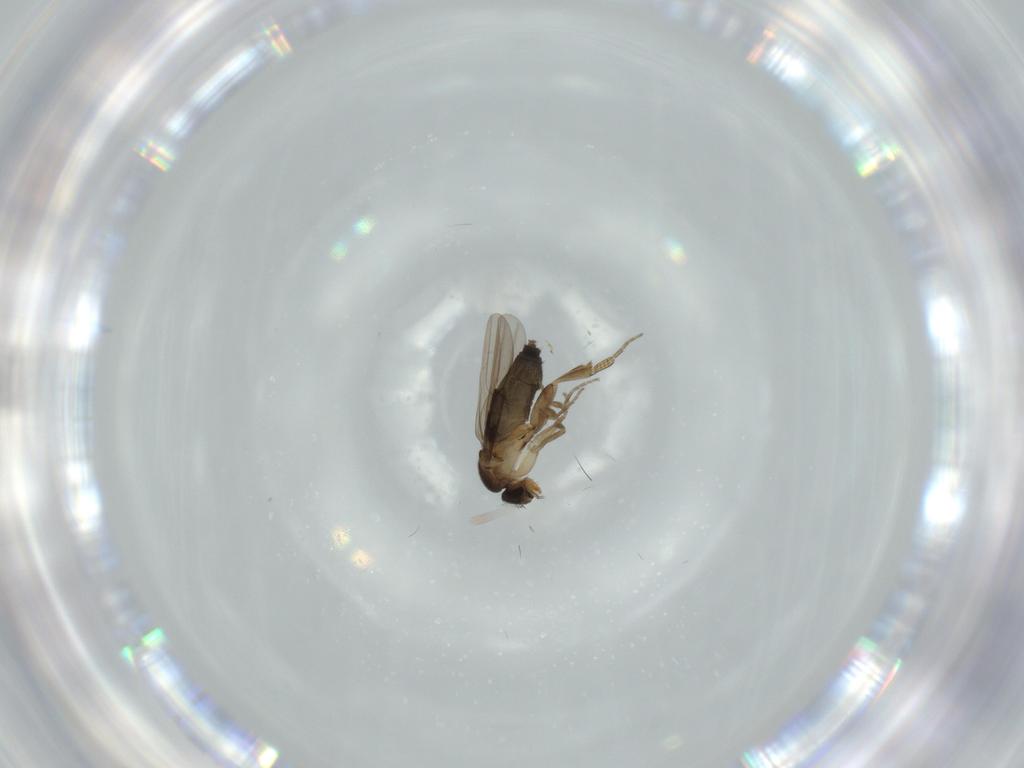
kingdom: Animalia
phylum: Arthropoda
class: Insecta
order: Diptera
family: Phoridae
